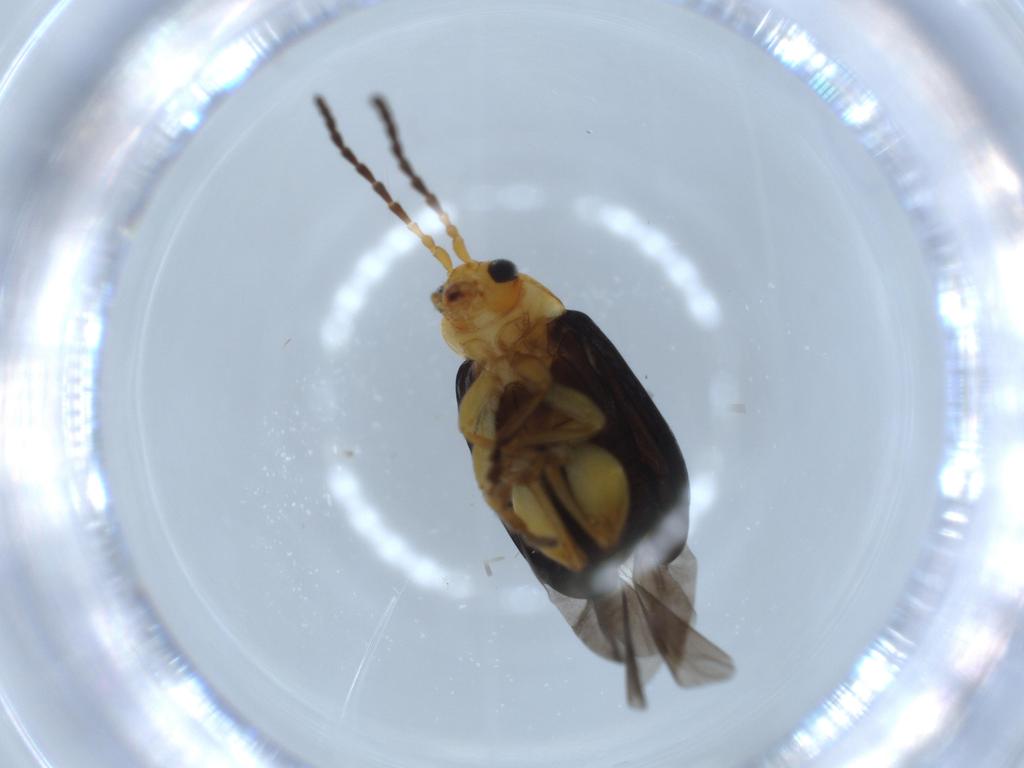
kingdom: Animalia
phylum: Arthropoda
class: Insecta
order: Coleoptera
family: Chrysomelidae
